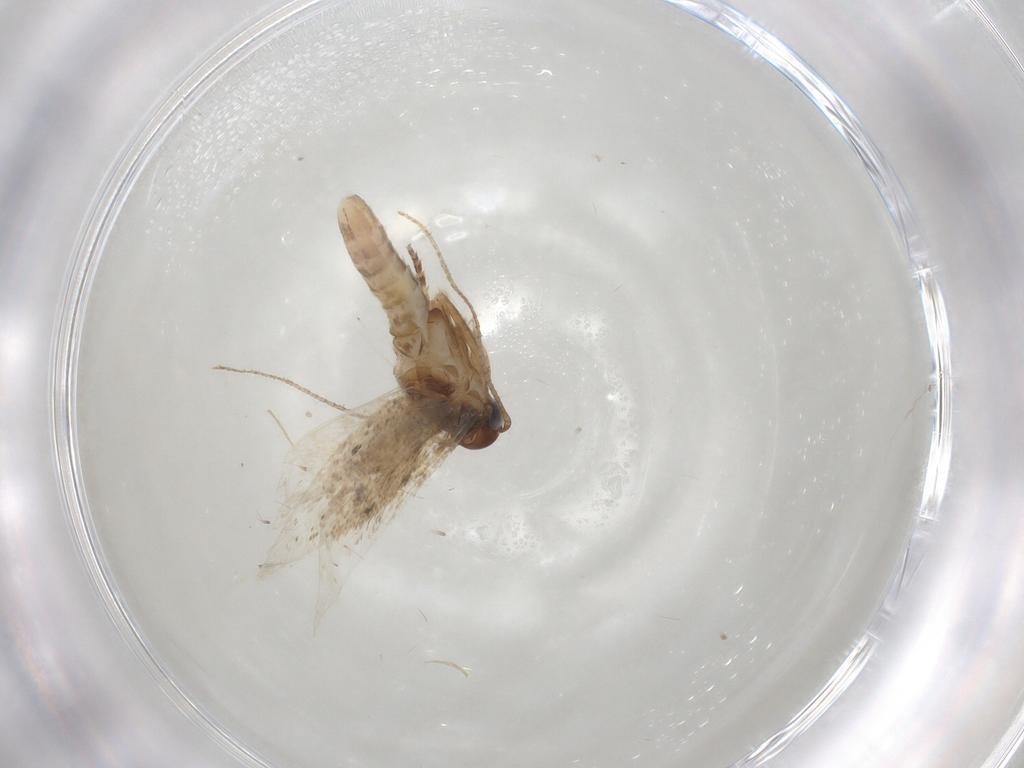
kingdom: Animalia
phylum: Arthropoda
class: Insecta
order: Lepidoptera
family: Gelechiidae
